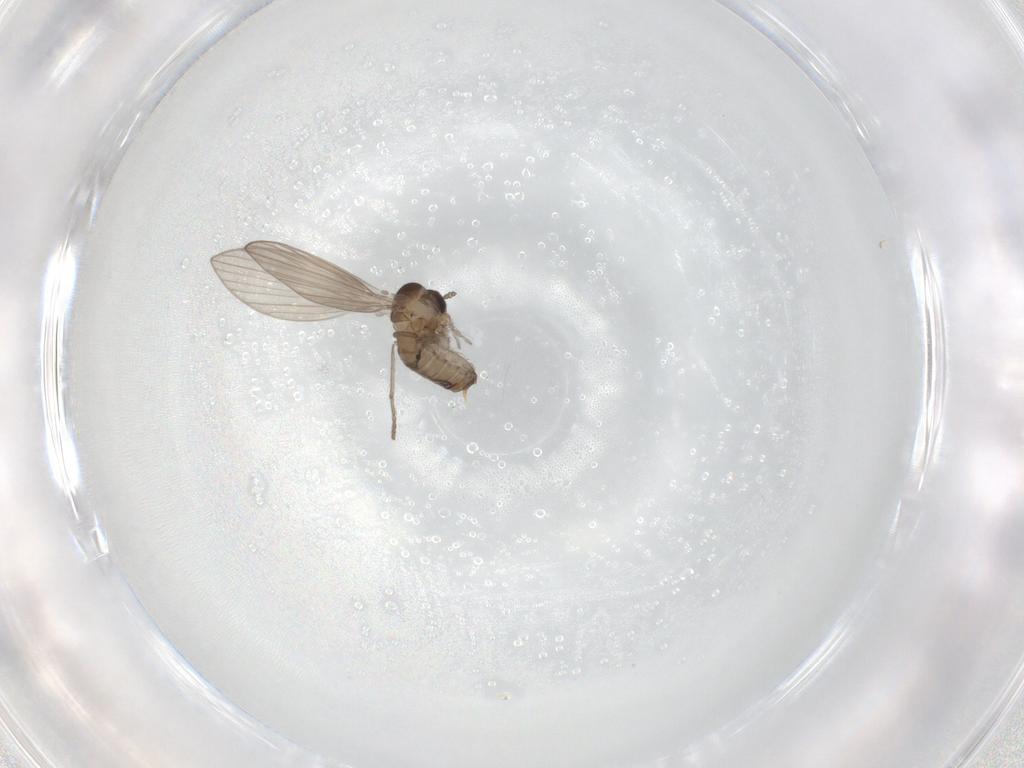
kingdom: Animalia
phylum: Arthropoda
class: Insecta
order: Diptera
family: Psychodidae
